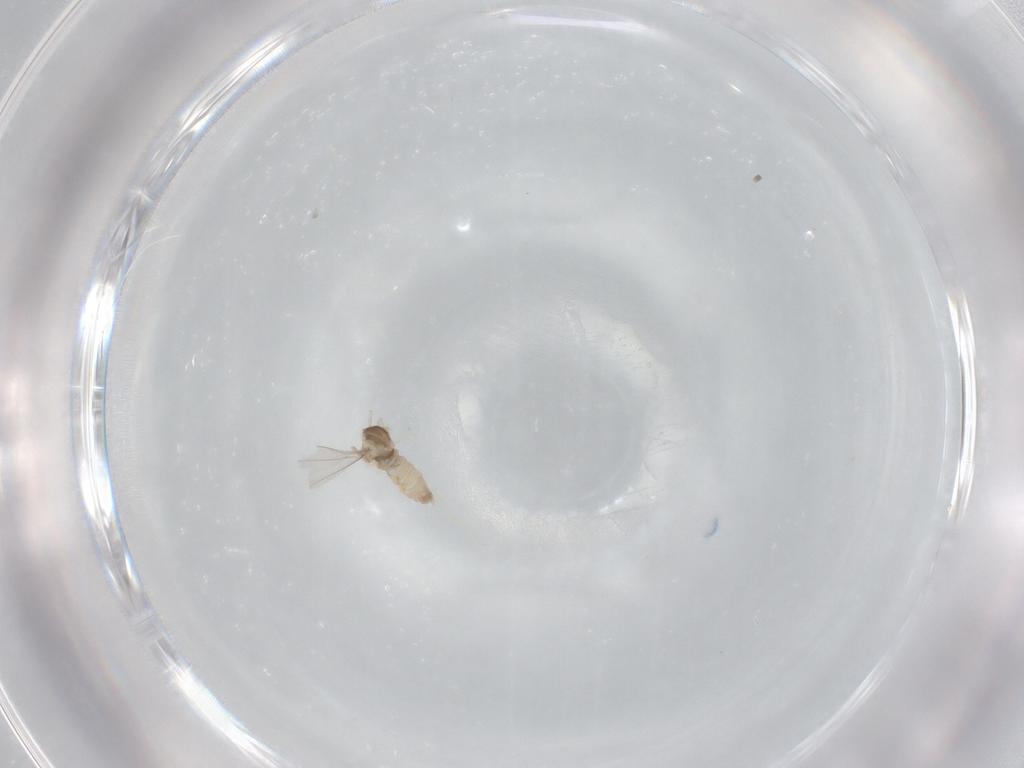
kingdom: Animalia
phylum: Arthropoda
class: Insecta
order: Diptera
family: Cecidomyiidae
